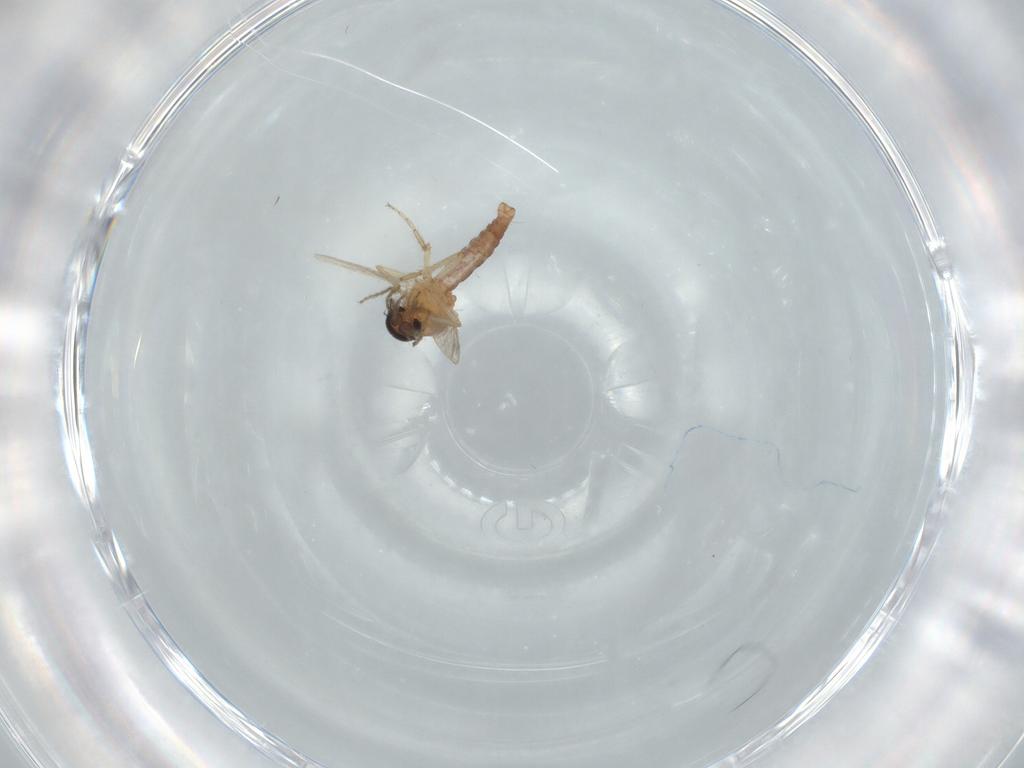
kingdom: Animalia
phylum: Arthropoda
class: Insecta
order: Diptera
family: Ceratopogonidae
